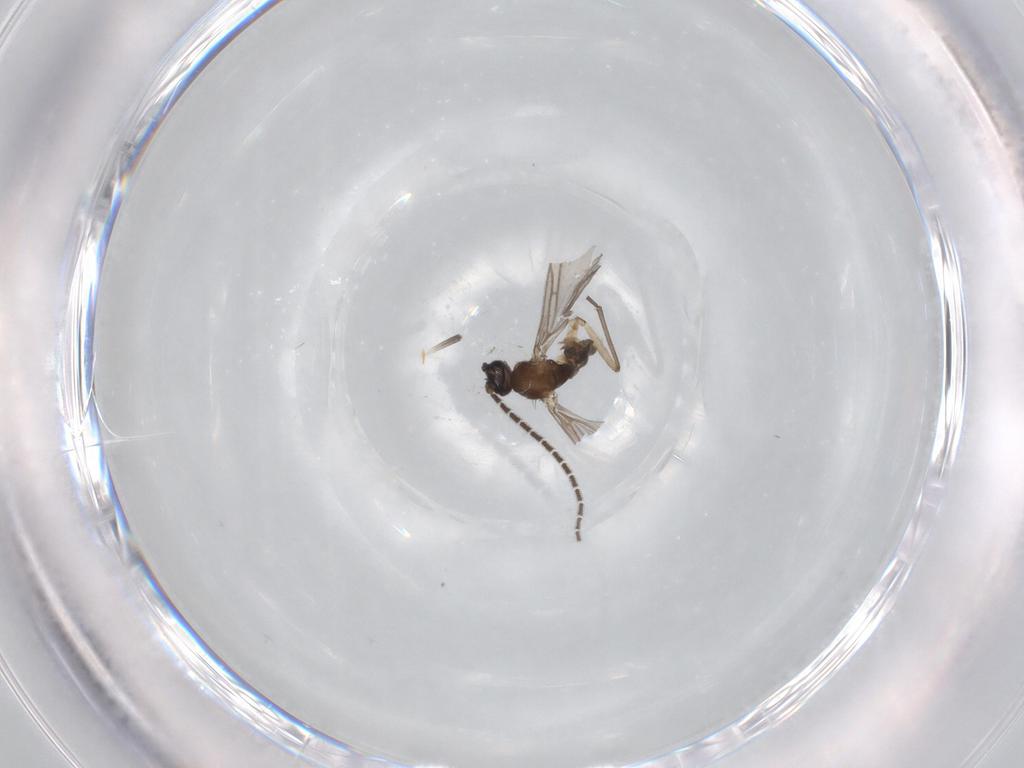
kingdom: Animalia
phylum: Arthropoda
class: Insecta
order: Diptera
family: Sciaridae
